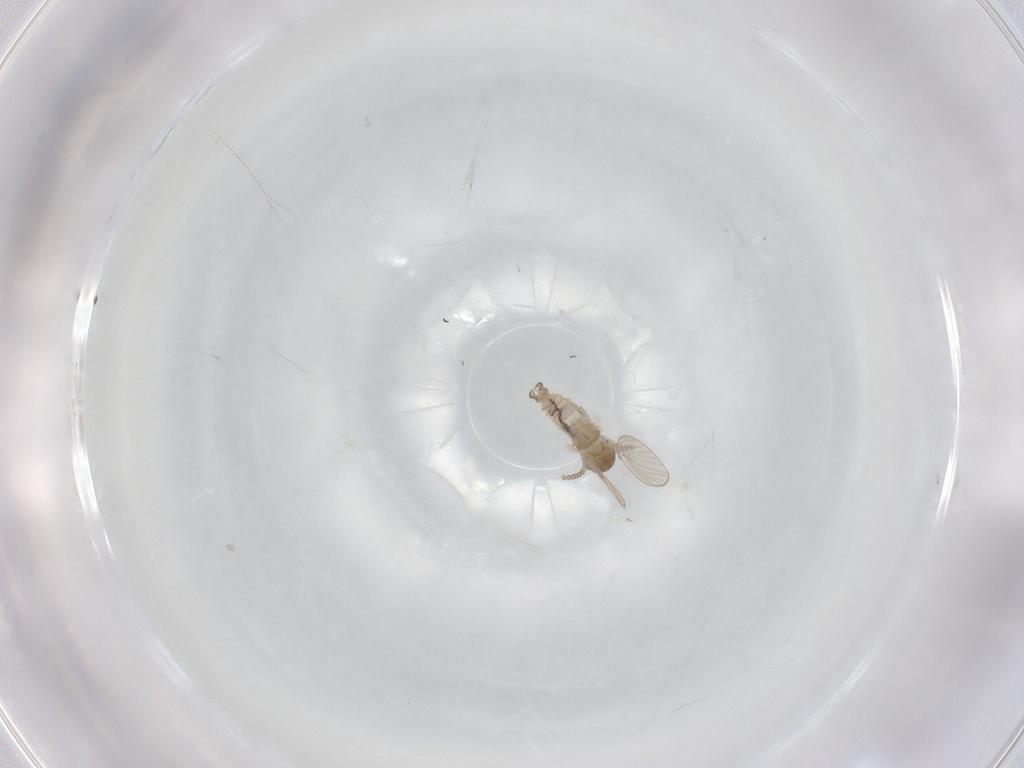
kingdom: Animalia
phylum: Arthropoda
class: Insecta
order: Diptera
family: Psychodidae
